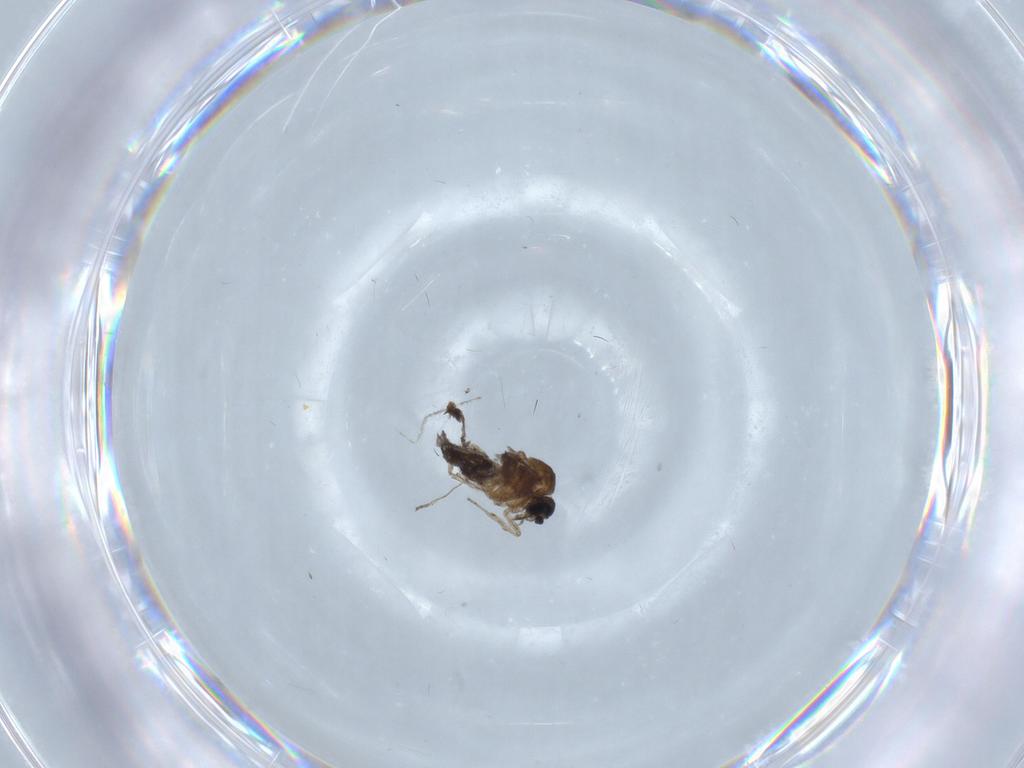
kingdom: Animalia
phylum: Arthropoda
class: Insecta
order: Diptera
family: Cecidomyiidae
